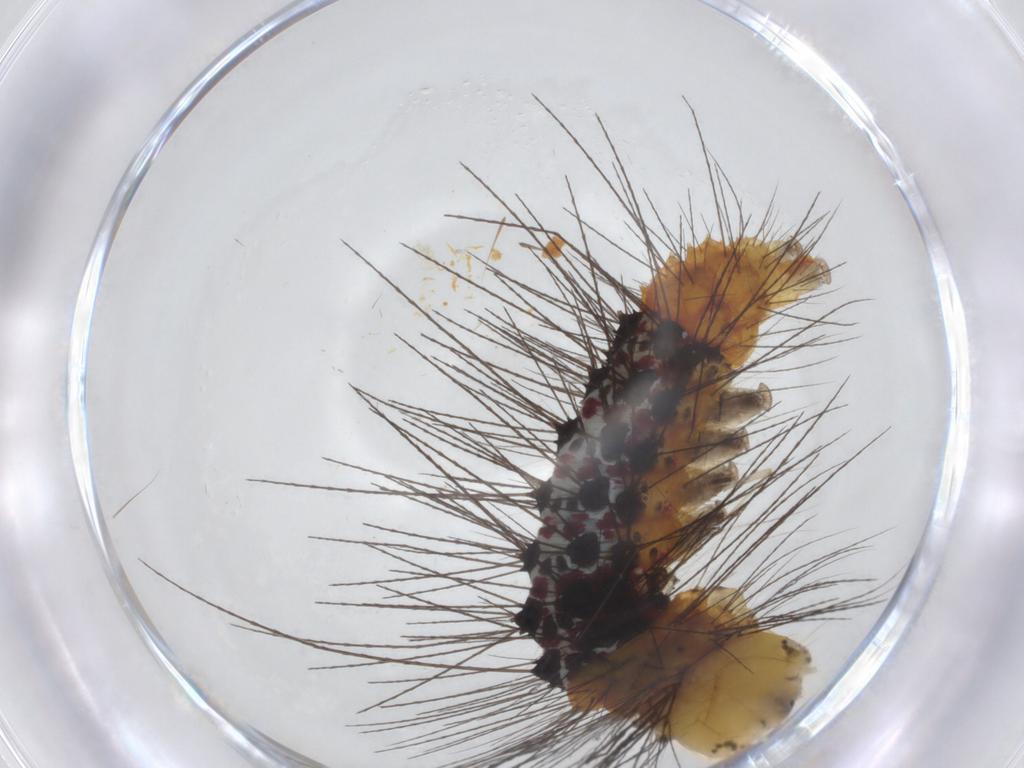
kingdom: Animalia
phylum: Arthropoda
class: Insecta
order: Lepidoptera
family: Erebidae
